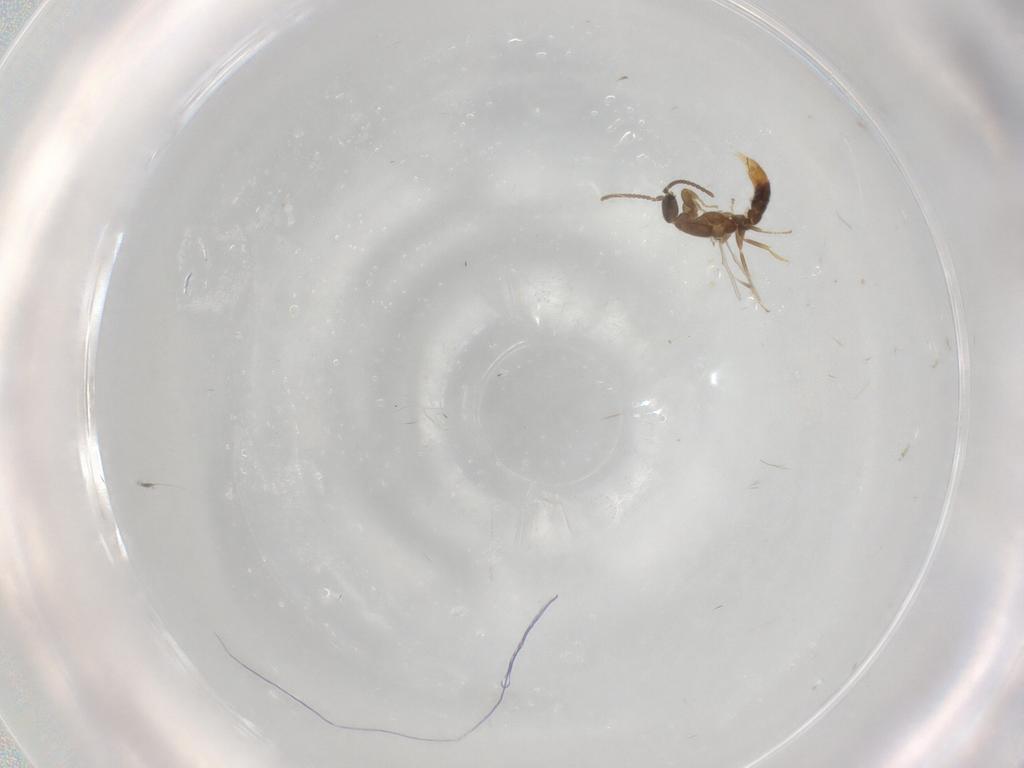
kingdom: Animalia
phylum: Arthropoda
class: Insecta
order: Hymenoptera
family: Formicidae
